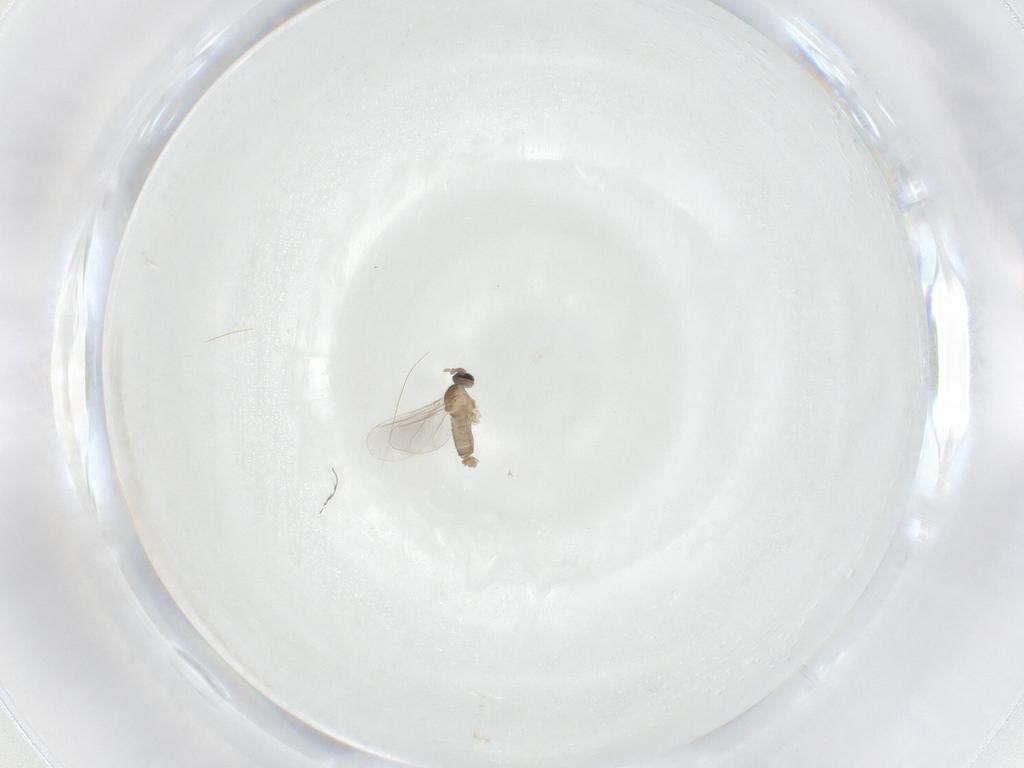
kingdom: Animalia
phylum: Arthropoda
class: Insecta
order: Diptera
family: Cecidomyiidae
